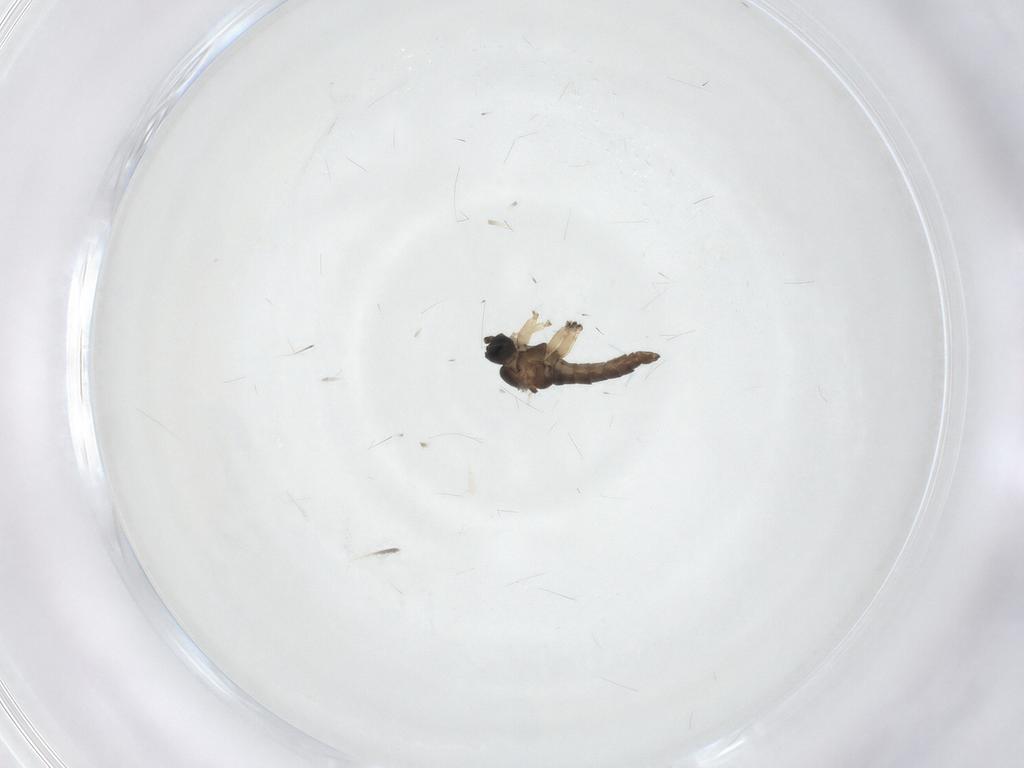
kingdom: Animalia
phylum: Arthropoda
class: Insecta
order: Diptera
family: Sciaridae
